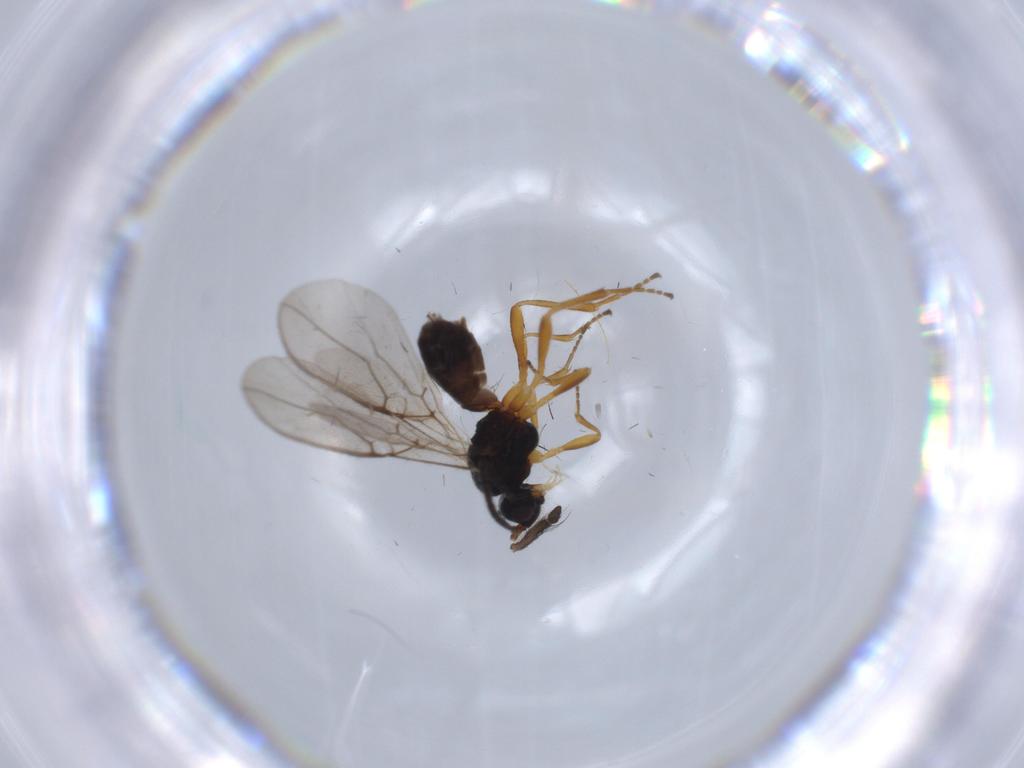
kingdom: Animalia
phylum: Arthropoda
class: Insecta
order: Hymenoptera
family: Braconidae
